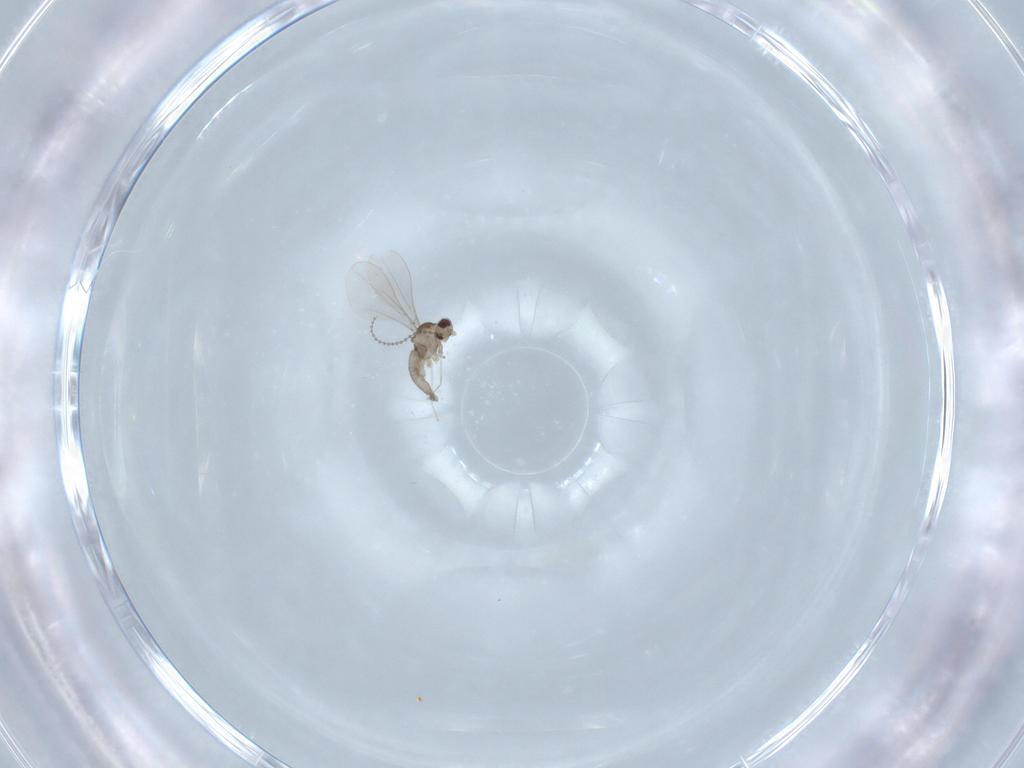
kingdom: Animalia
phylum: Arthropoda
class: Insecta
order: Diptera
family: Cecidomyiidae
